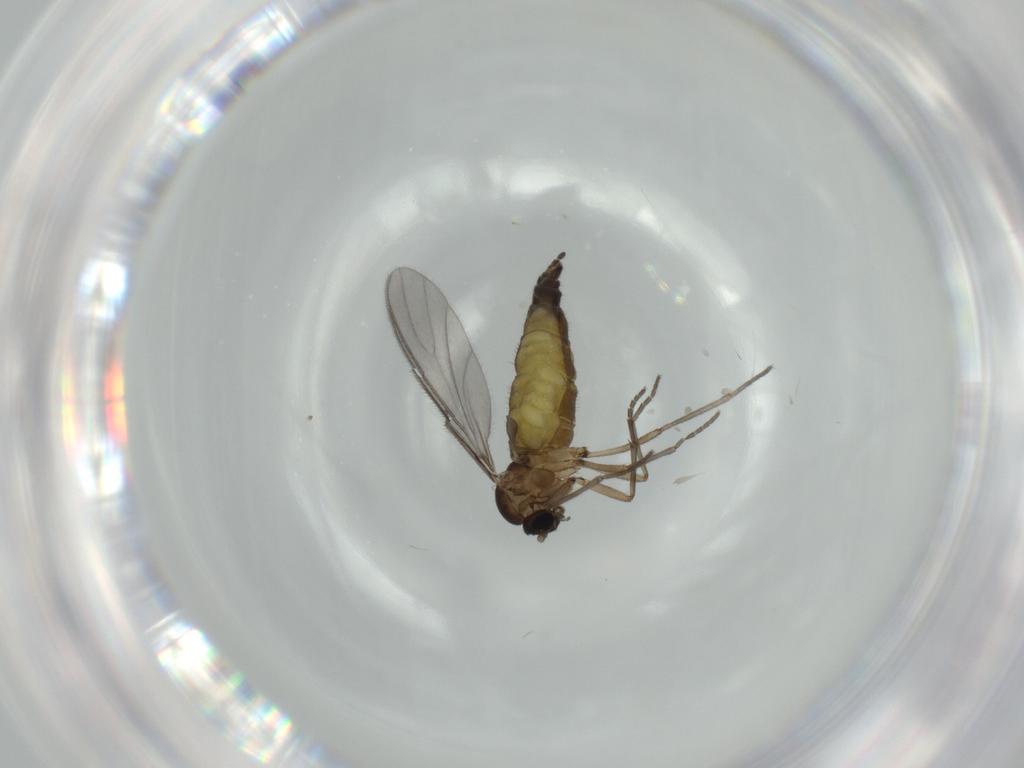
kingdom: Animalia
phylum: Arthropoda
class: Insecta
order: Diptera
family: Sciaridae
